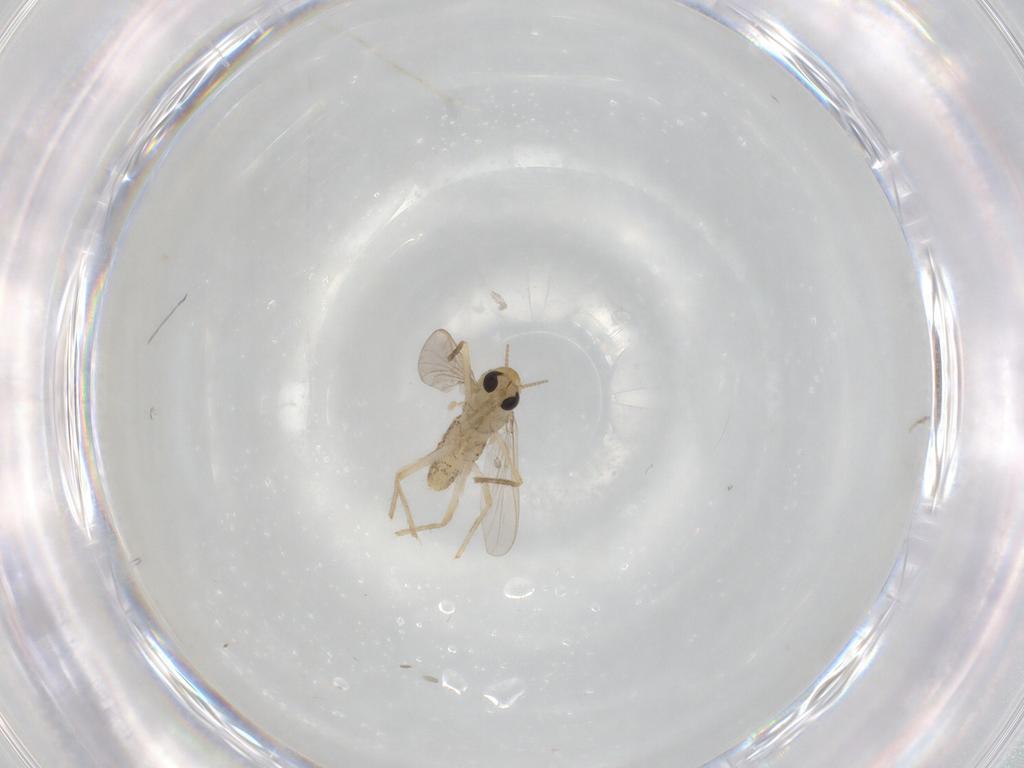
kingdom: Animalia
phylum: Arthropoda
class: Insecta
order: Diptera
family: Chironomidae
